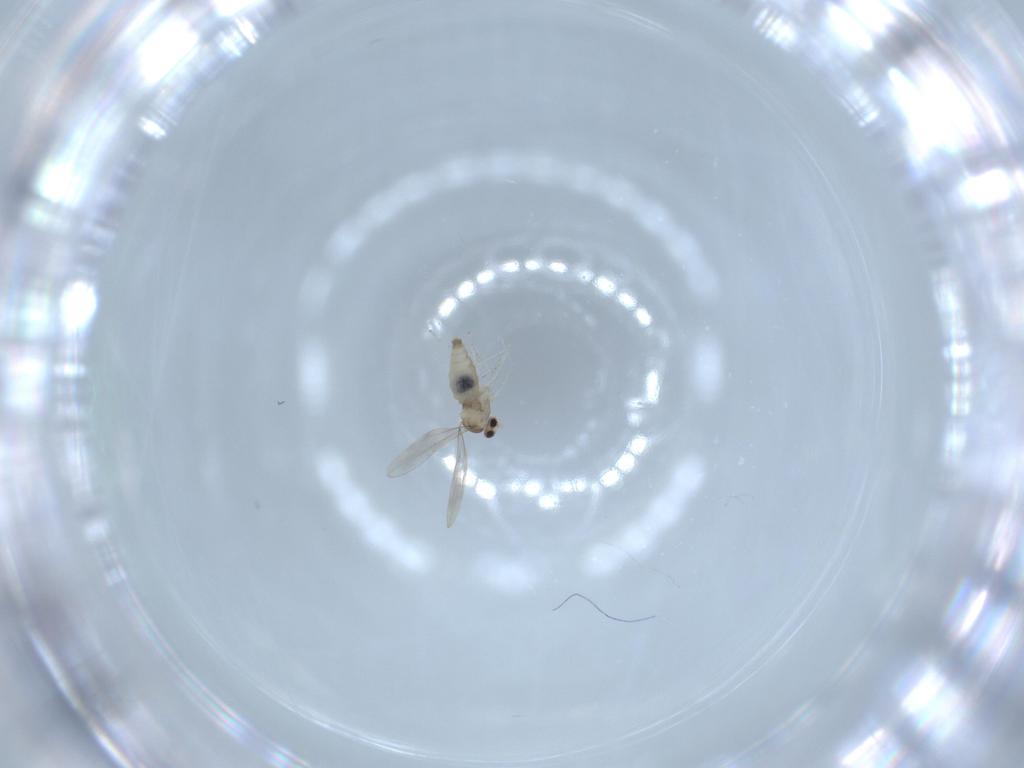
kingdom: Animalia
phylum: Arthropoda
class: Insecta
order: Diptera
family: Cecidomyiidae
